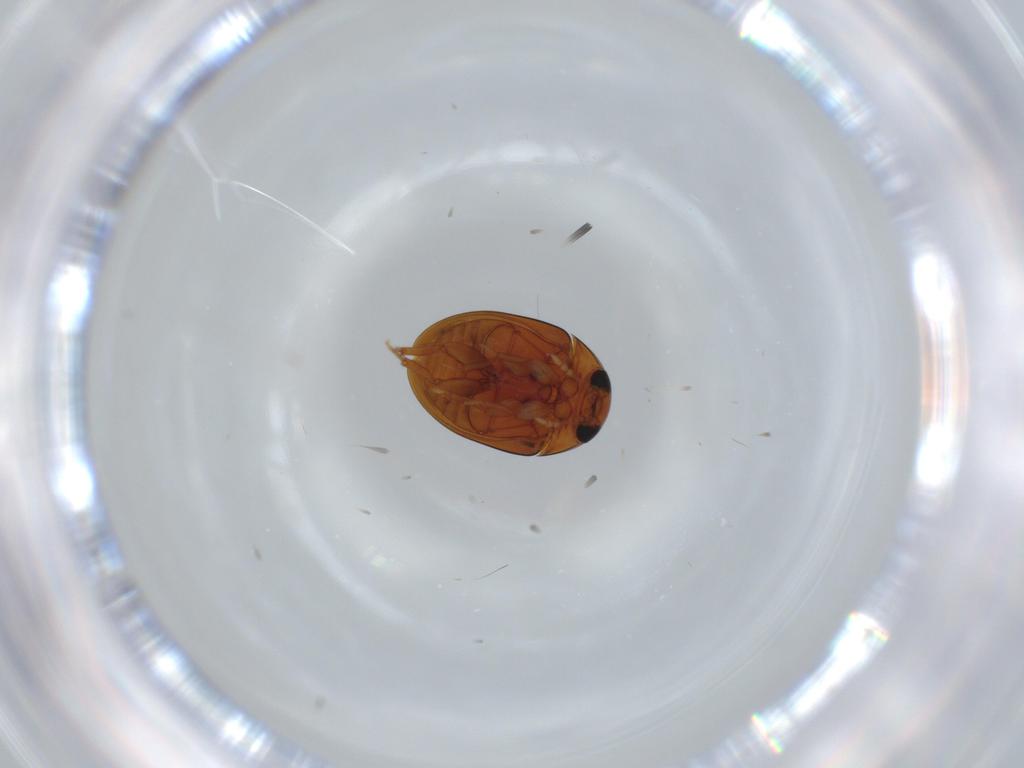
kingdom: Animalia
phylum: Arthropoda
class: Insecta
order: Coleoptera
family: Phalacridae
